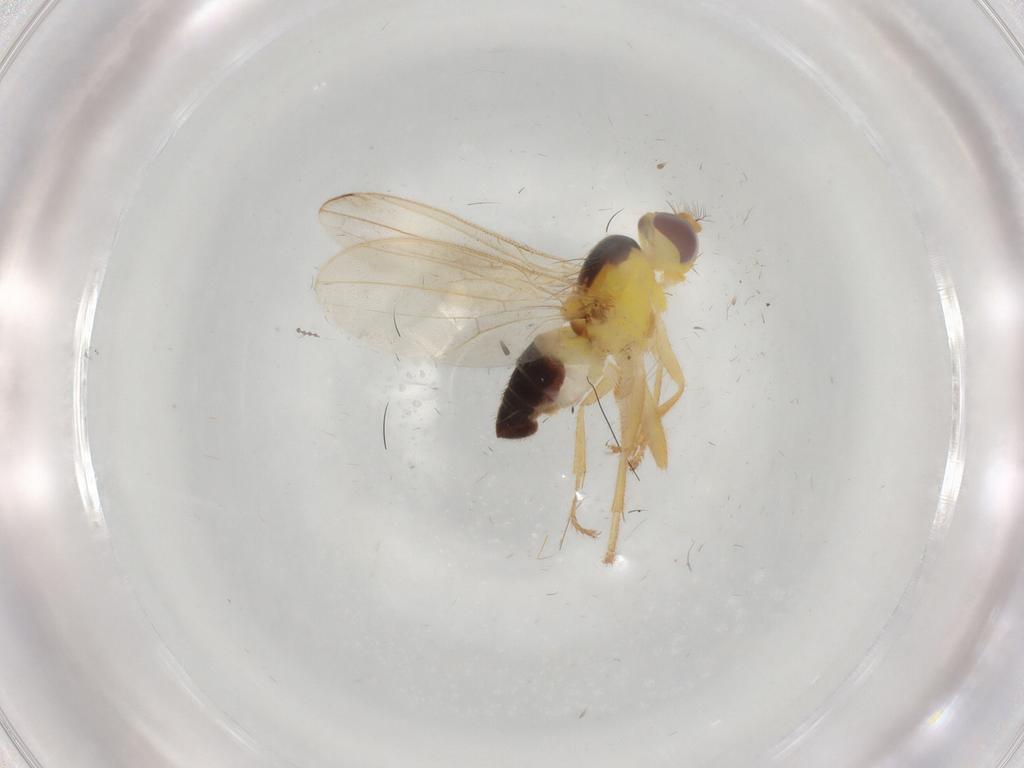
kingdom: Animalia
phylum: Arthropoda
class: Insecta
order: Diptera
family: Periscelididae
